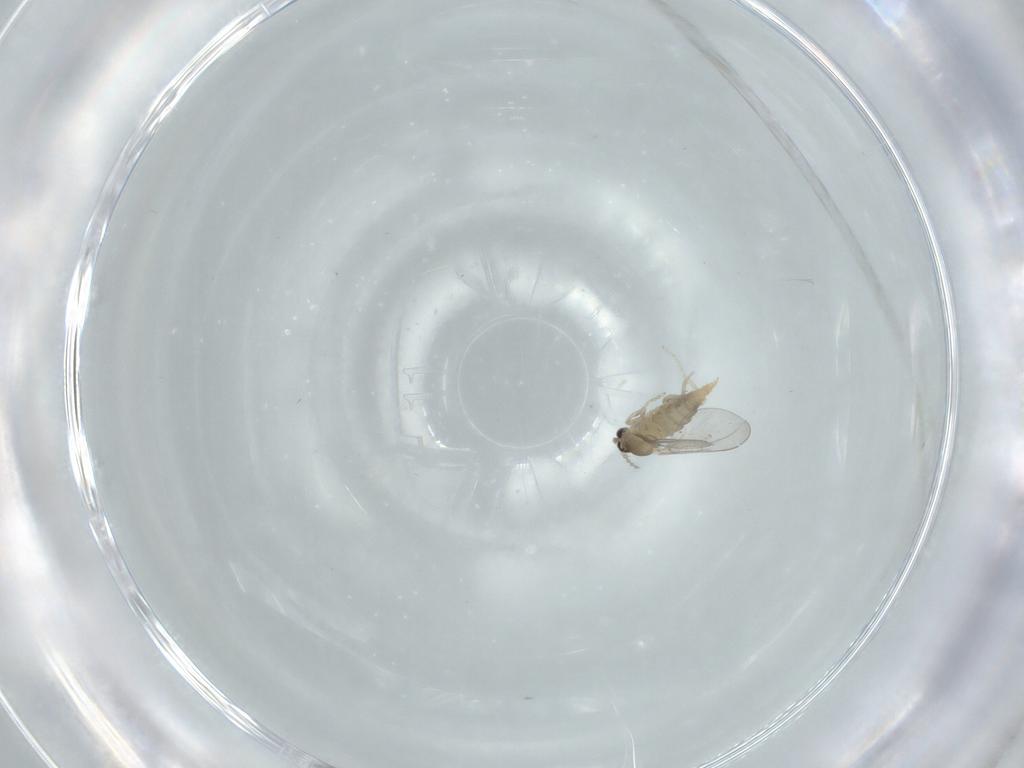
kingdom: Animalia
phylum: Arthropoda
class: Insecta
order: Diptera
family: Cecidomyiidae
